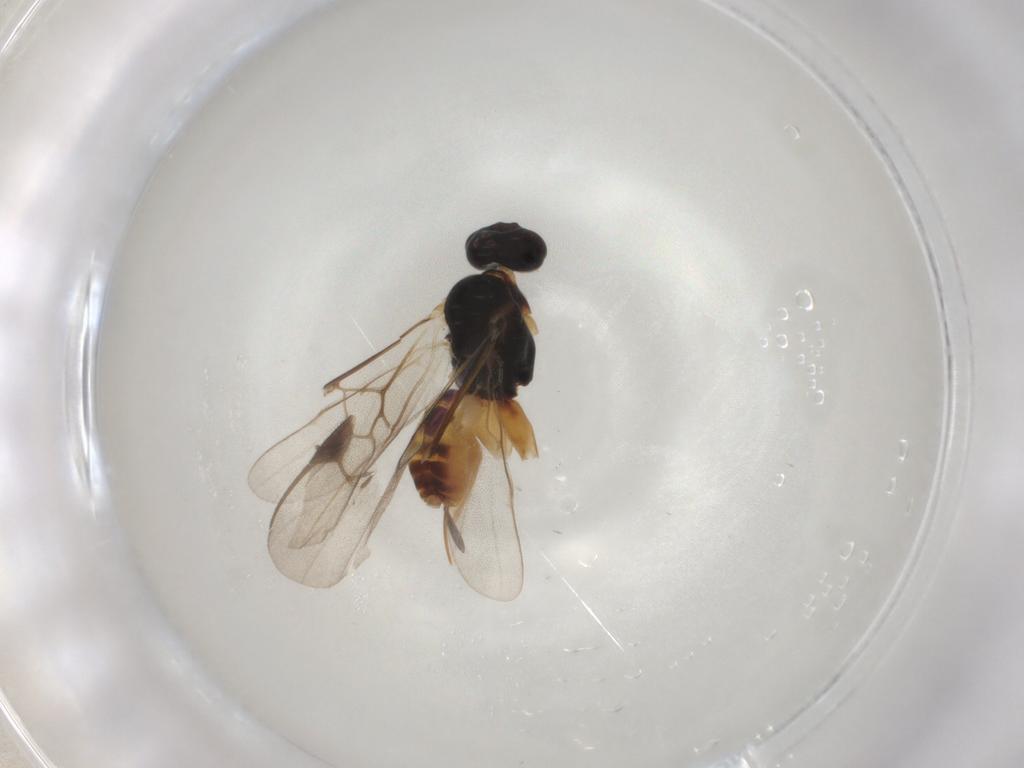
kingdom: Animalia
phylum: Arthropoda
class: Insecta
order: Hymenoptera
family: Braconidae
